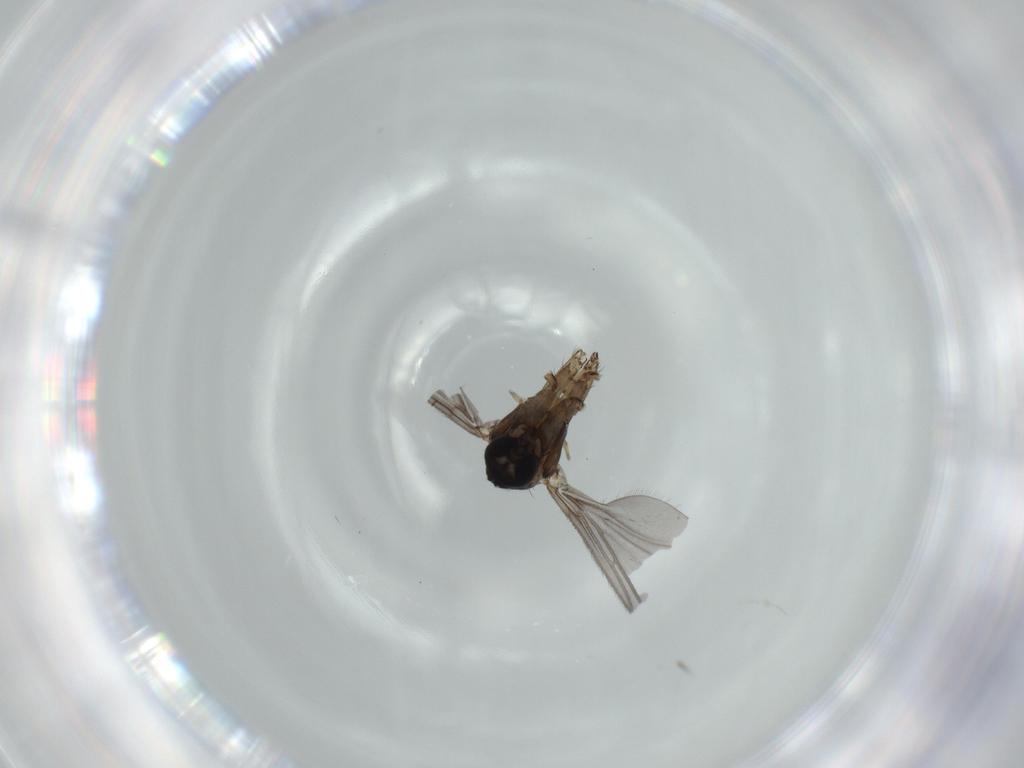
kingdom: Animalia
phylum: Arthropoda
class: Insecta
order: Diptera
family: Sciaridae
